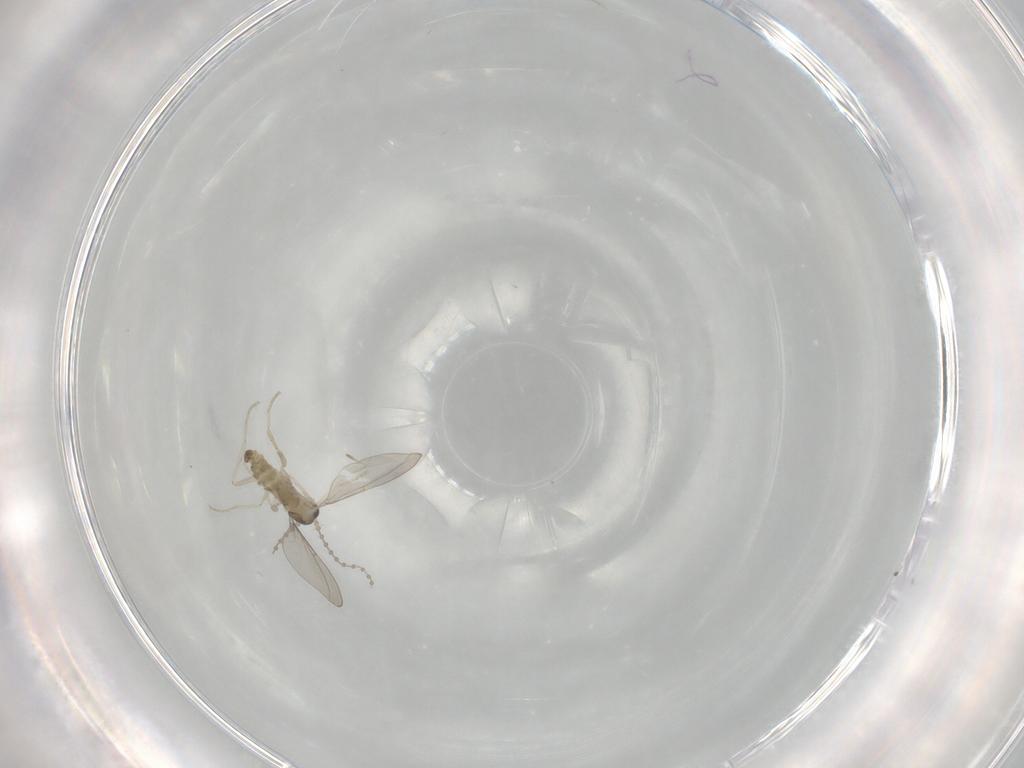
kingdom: Animalia
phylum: Arthropoda
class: Insecta
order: Diptera
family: Cecidomyiidae
